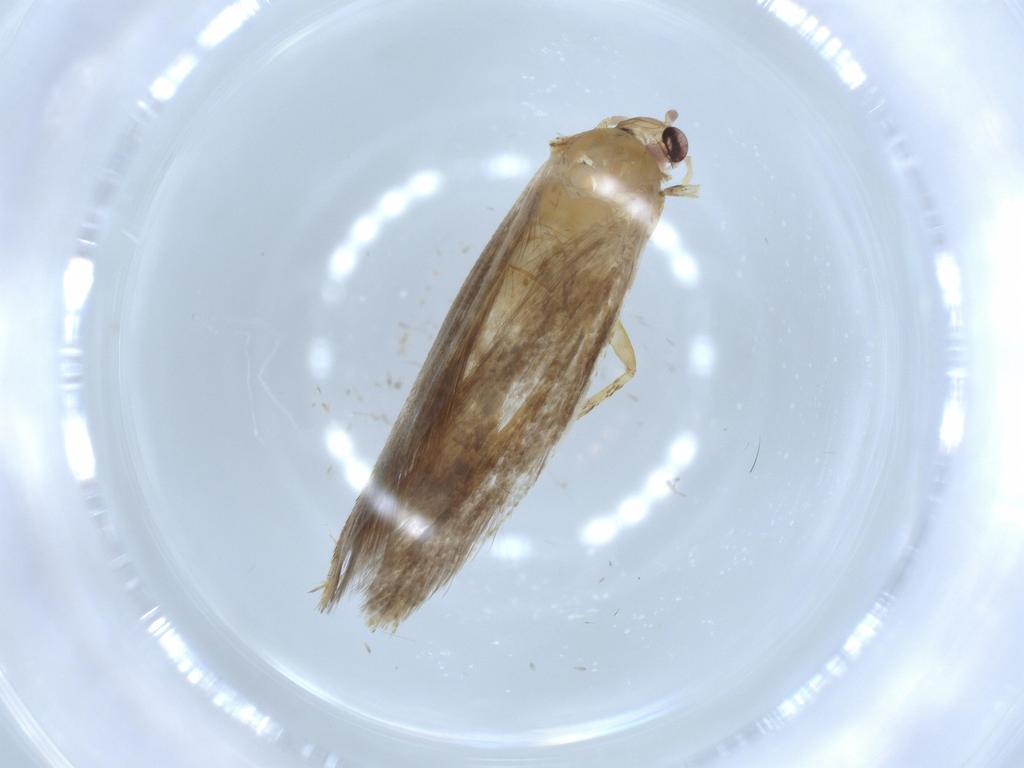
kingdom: Animalia
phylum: Arthropoda
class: Insecta
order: Lepidoptera
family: Tineidae
